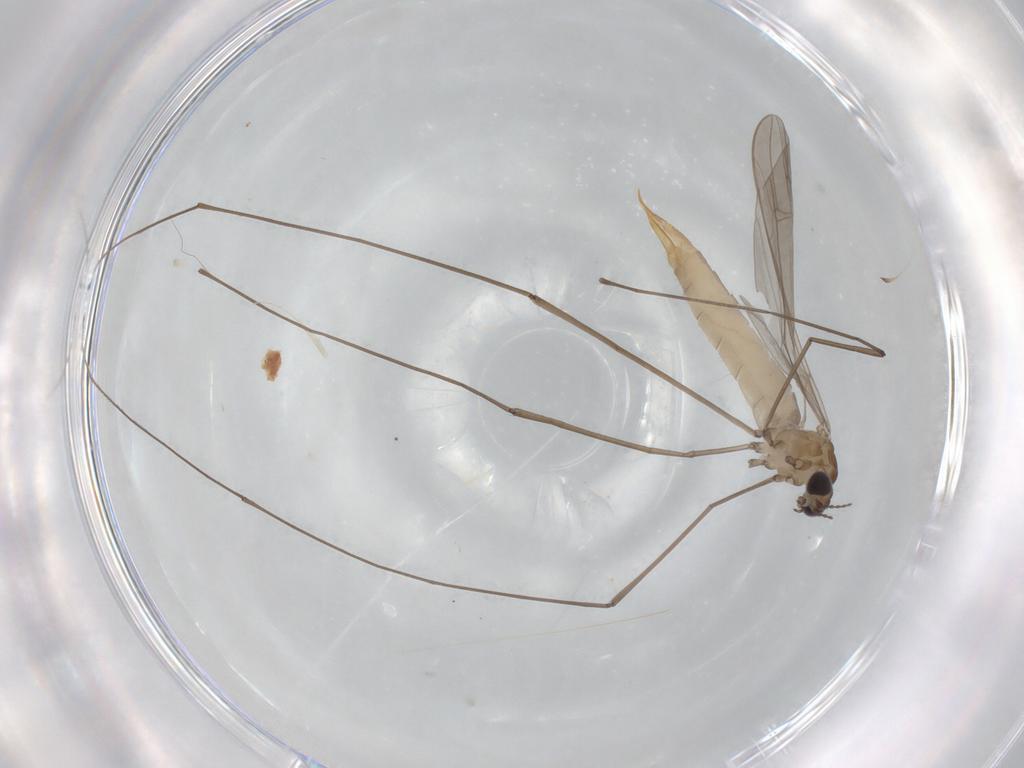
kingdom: Animalia
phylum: Arthropoda
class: Insecta
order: Diptera
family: Limoniidae
